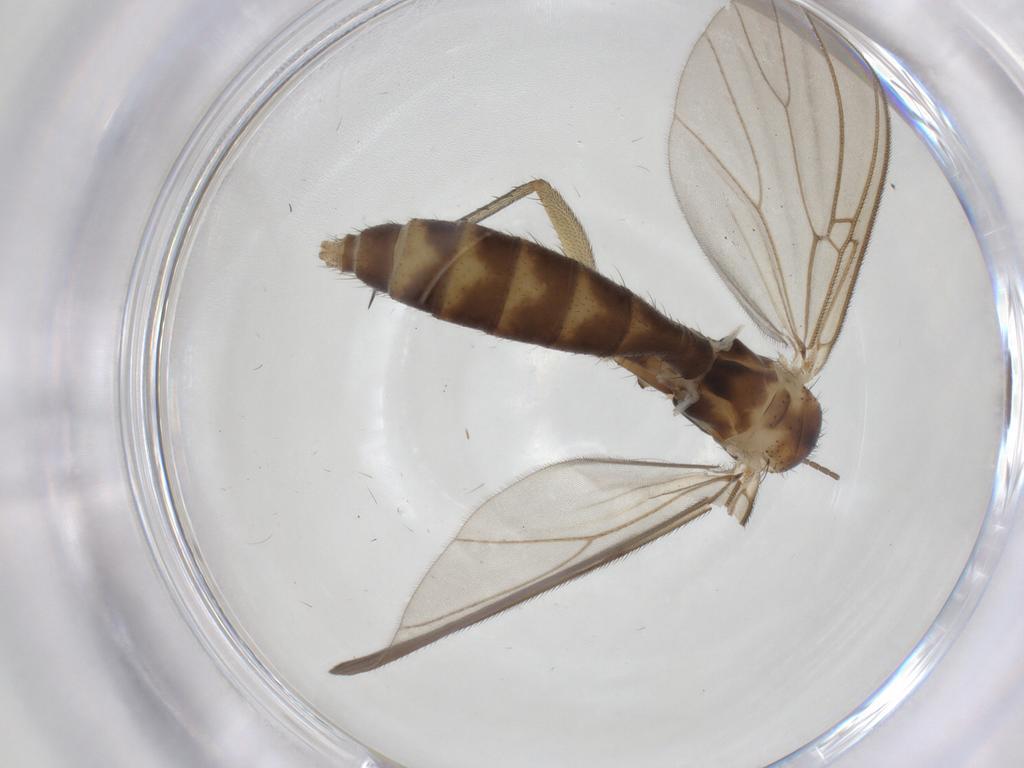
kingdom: Animalia
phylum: Arthropoda
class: Insecta
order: Diptera
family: Mycetophilidae
